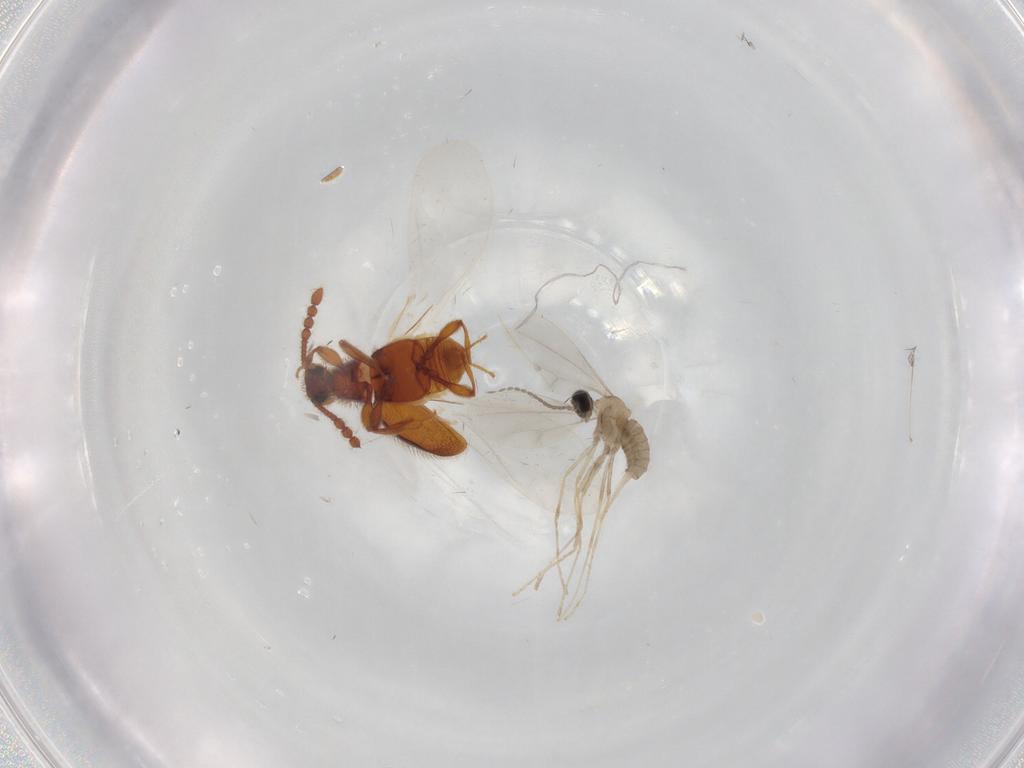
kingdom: Animalia
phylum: Arthropoda
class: Insecta
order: Diptera
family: Cecidomyiidae
